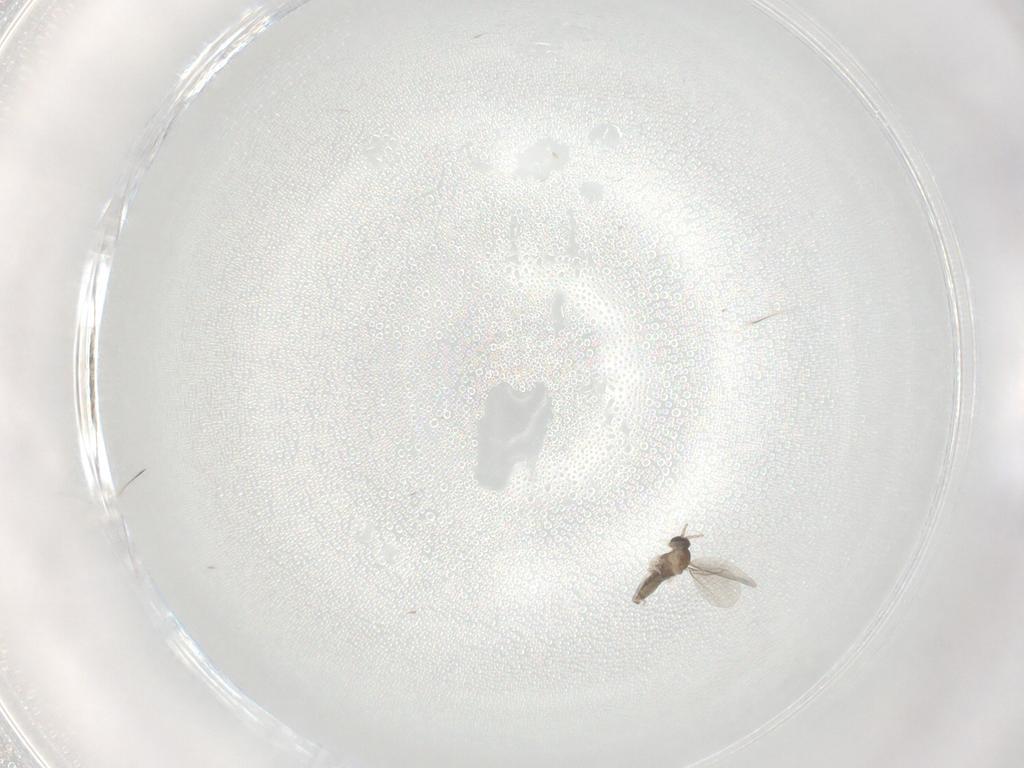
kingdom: Animalia
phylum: Arthropoda
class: Insecta
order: Diptera
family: Cecidomyiidae
